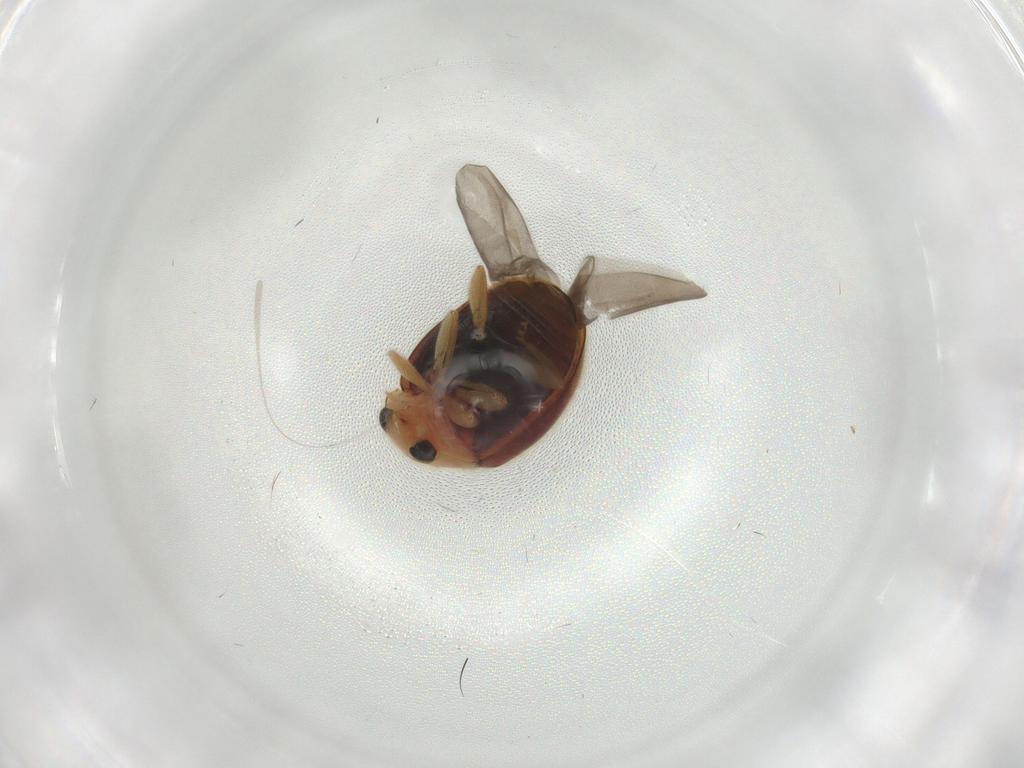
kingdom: Animalia
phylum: Arthropoda
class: Insecta
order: Coleoptera
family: Coccinellidae
